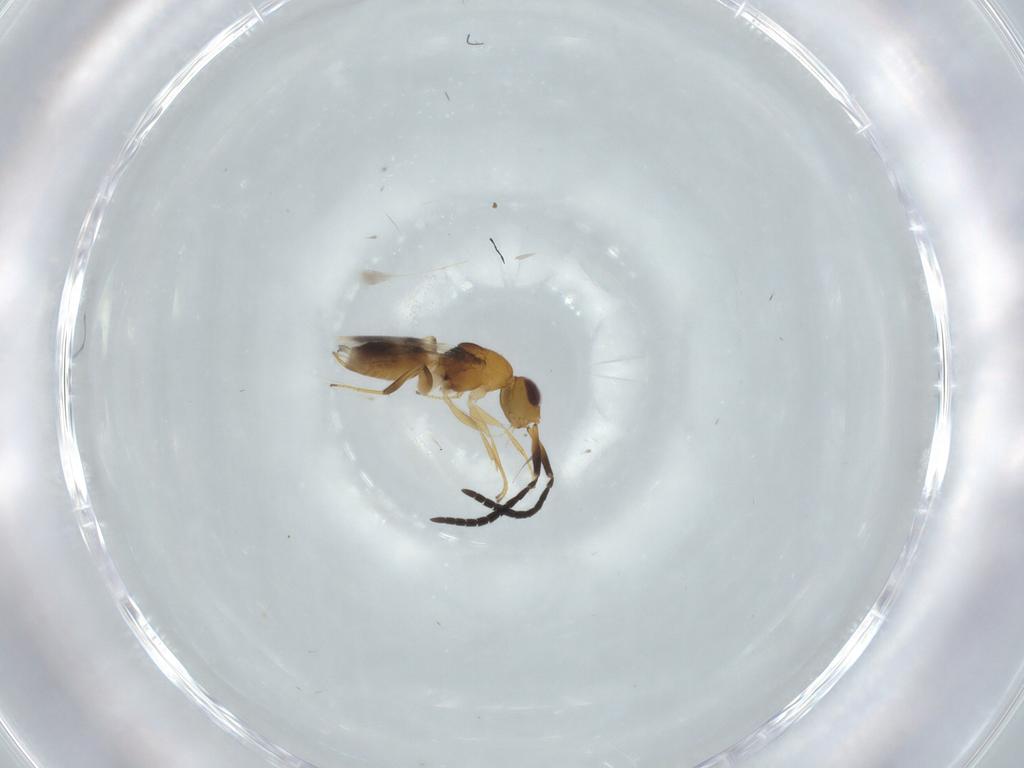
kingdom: Animalia
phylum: Arthropoda
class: Insecta
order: Hymenoptera
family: Megaspilidae
